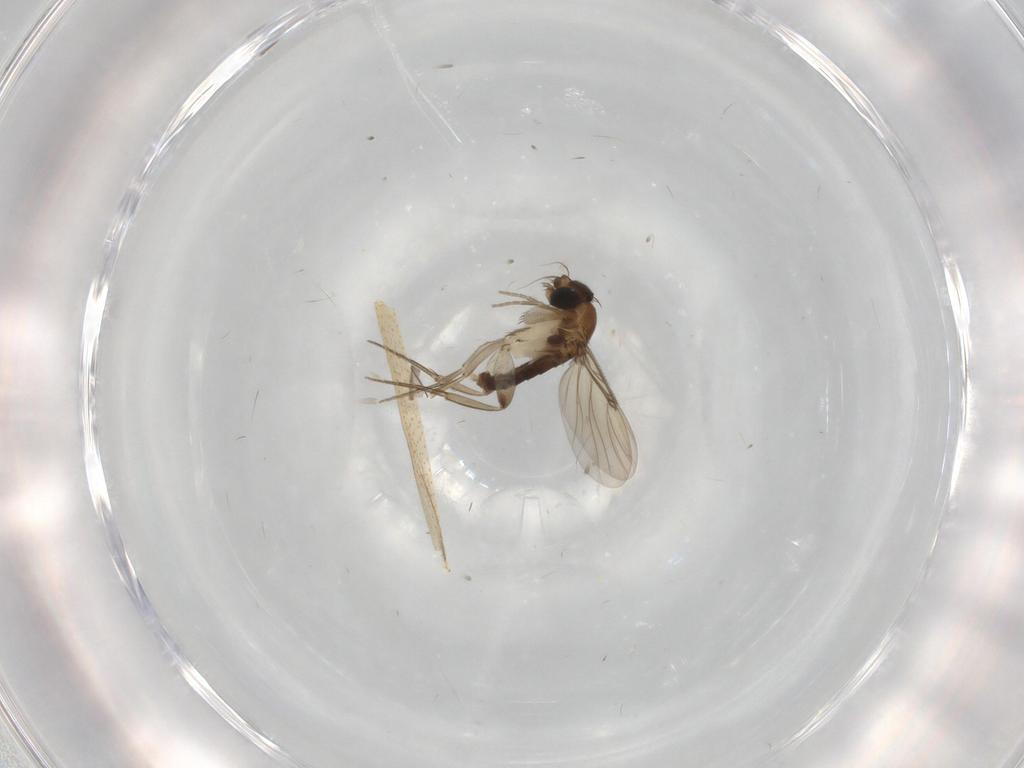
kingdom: Animalia
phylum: Arthropoda
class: Insecta
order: Diptera
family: Phoridae
